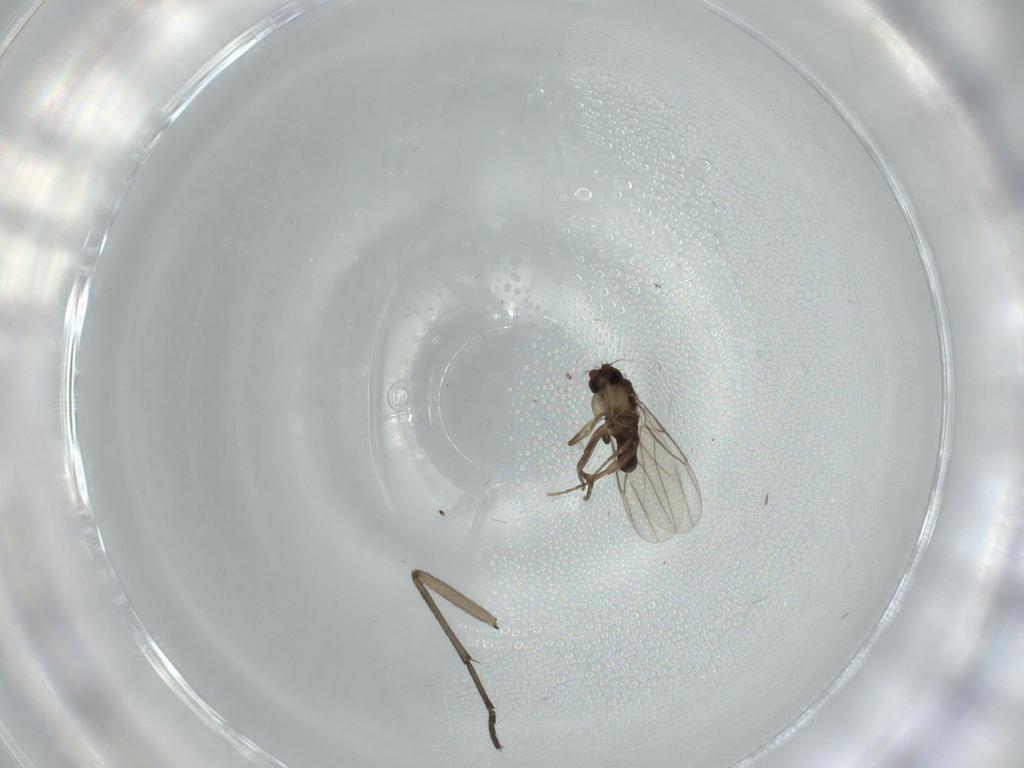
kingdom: Animalia
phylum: Arthropoda
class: Insecta
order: Diptera
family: Phoridae
